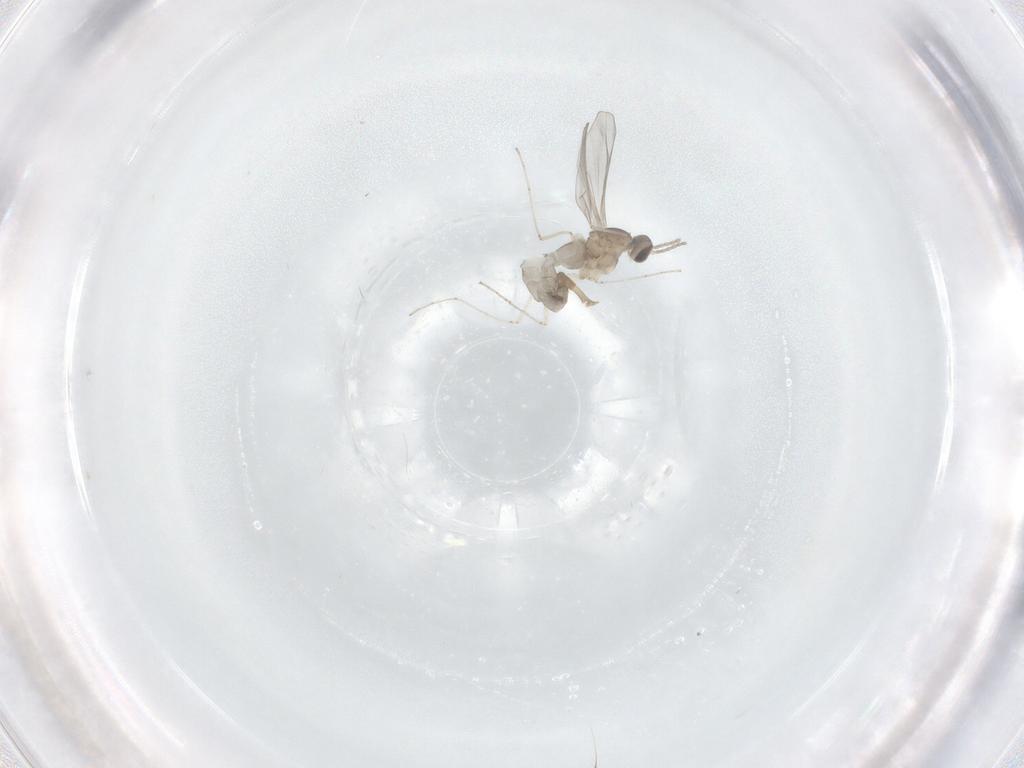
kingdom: Animalia
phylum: Arthropoda
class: Insecta
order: Diptera
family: Cecidomyiidae
